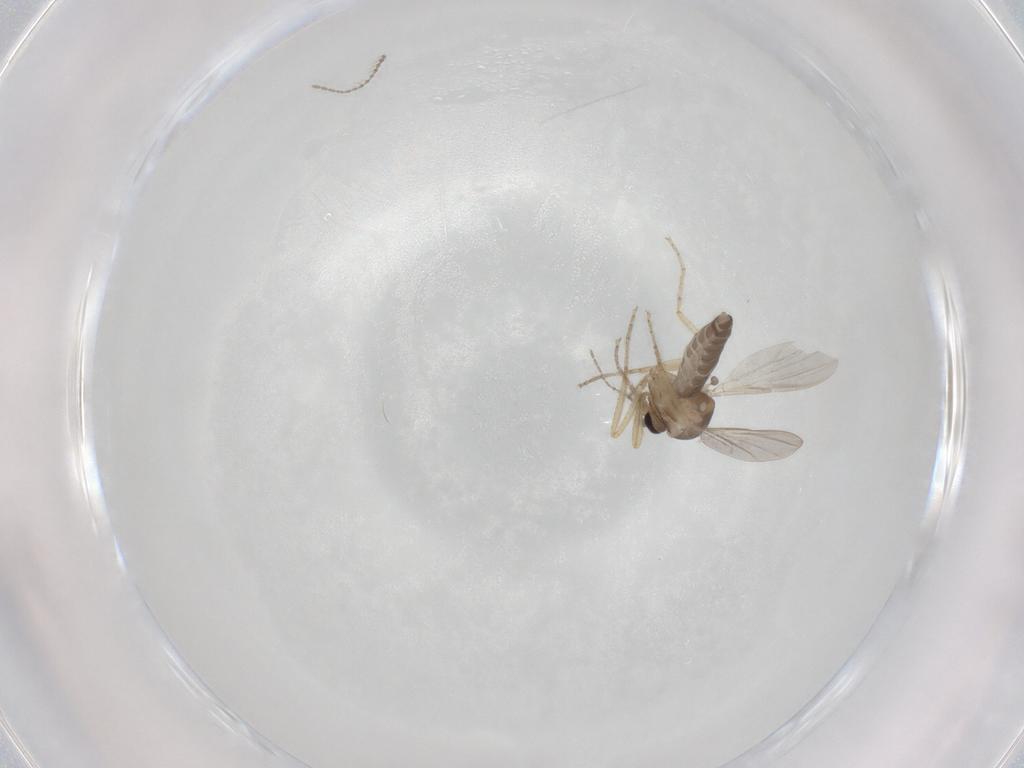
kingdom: Animalia
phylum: Arthropoda
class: Insecta
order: Diptera
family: Ceratopogonidae
